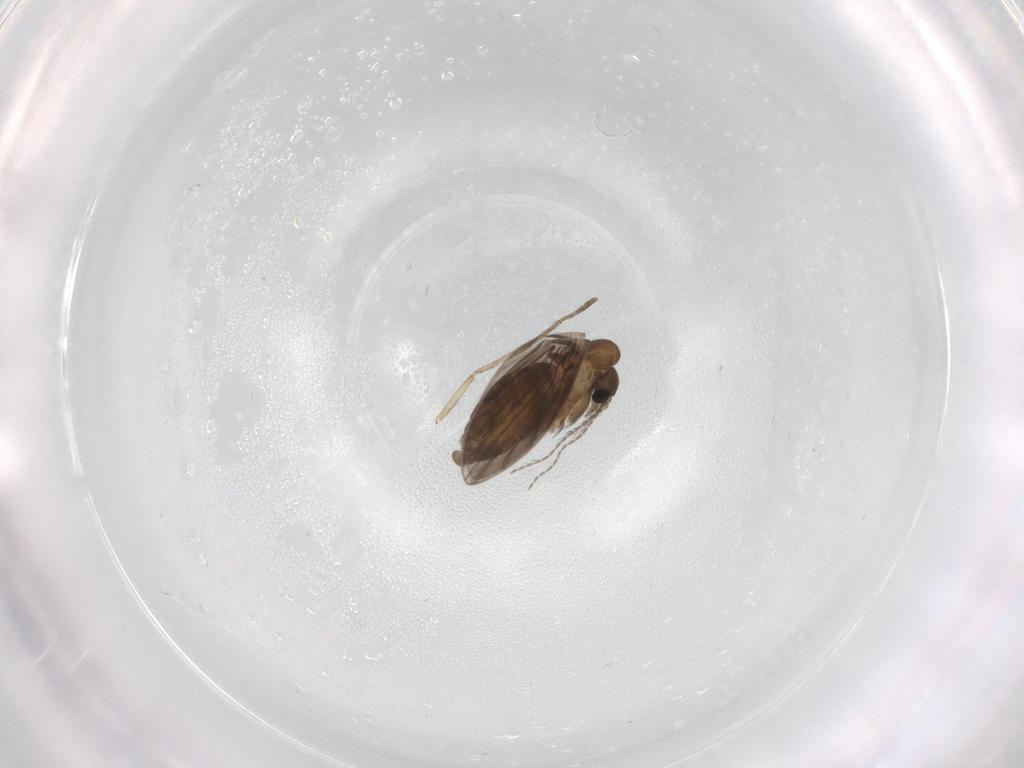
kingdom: Animalia
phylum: Arthropoda
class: Insecta
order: Diptera
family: Psychodidae
